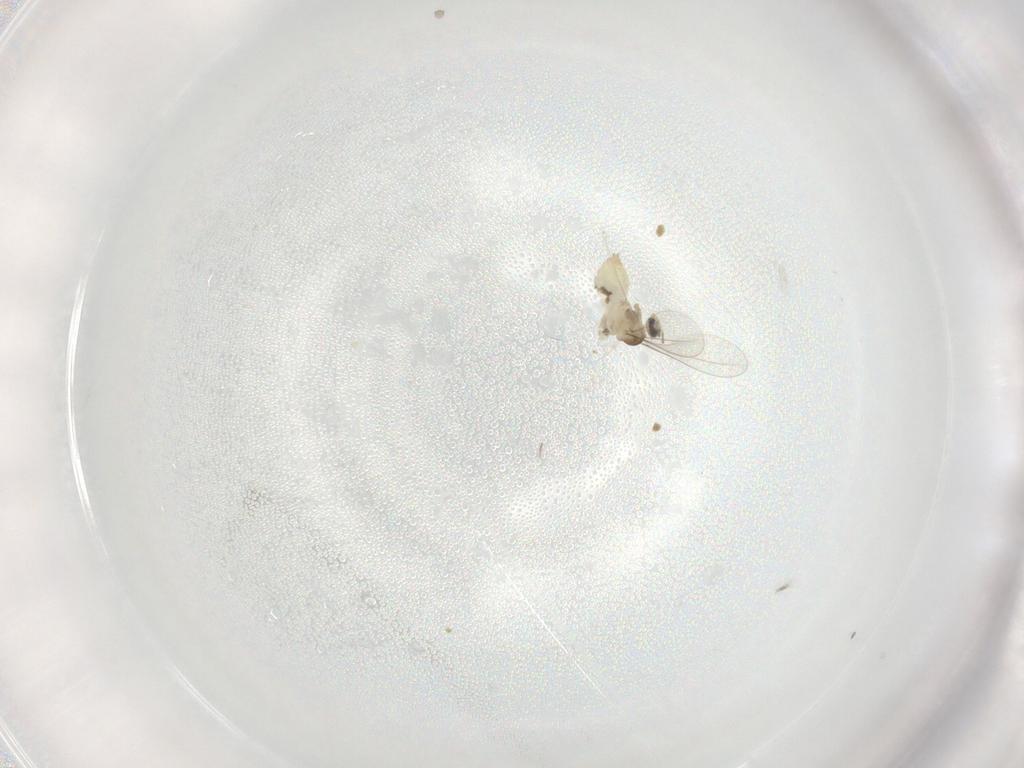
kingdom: Animalia
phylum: Arthropoda
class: Insecta
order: Diptera
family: Cecidomyiidae
